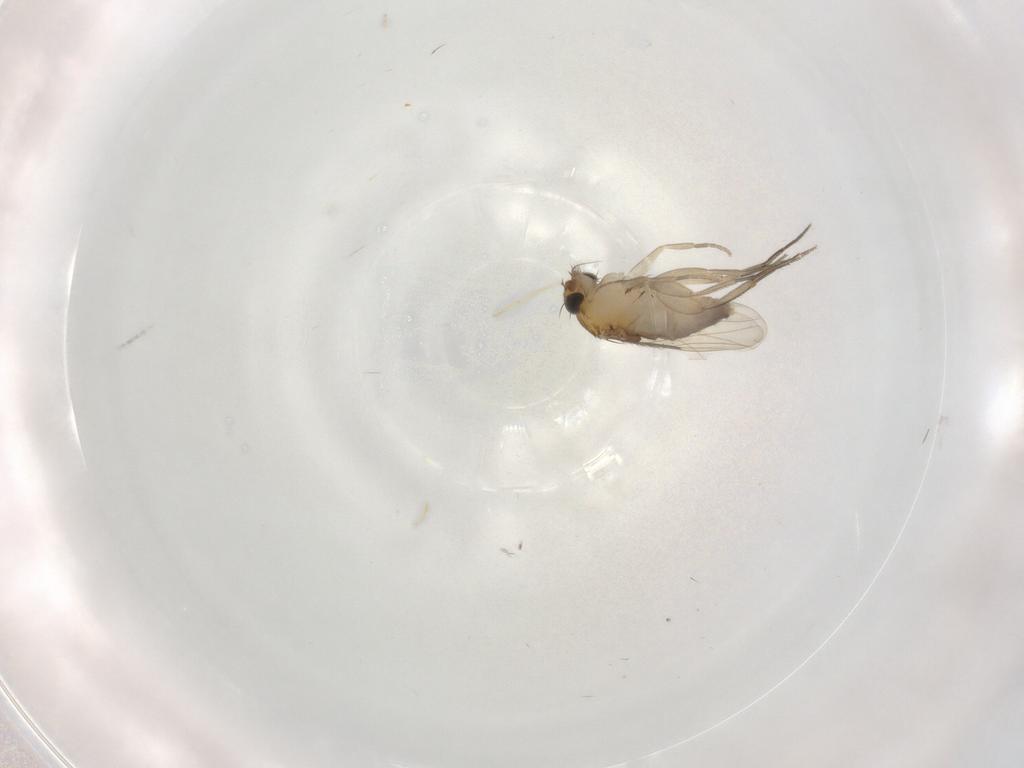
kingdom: Animalia
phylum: Arthropoda
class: Insecta
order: Diptera
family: Phoridae
